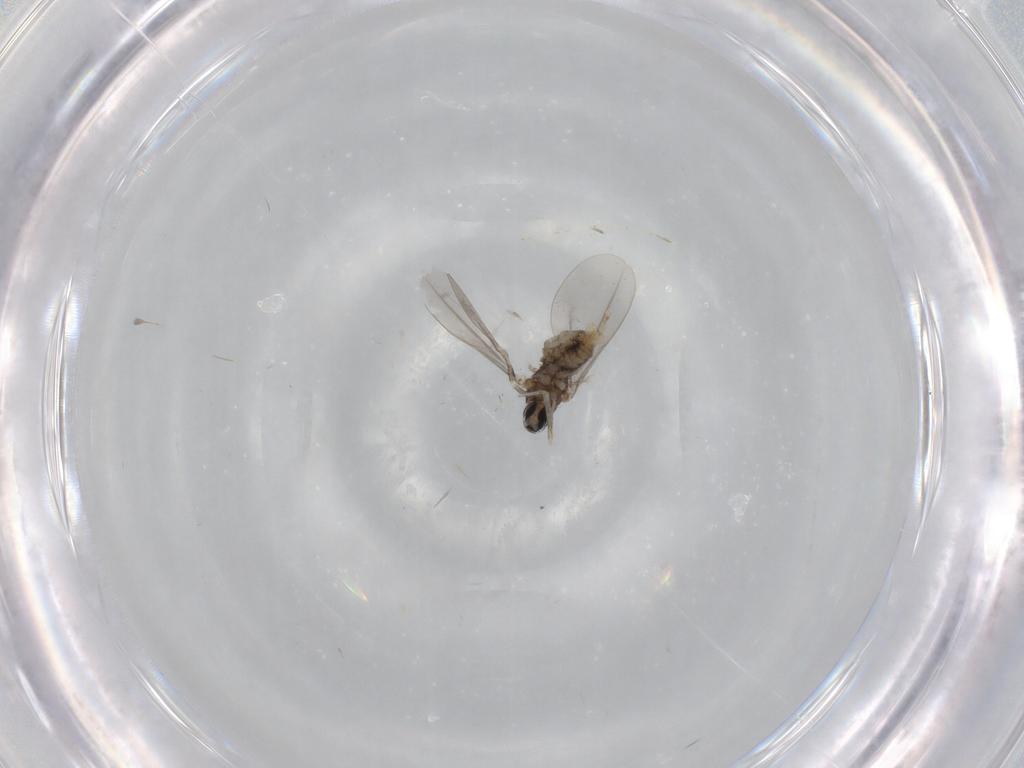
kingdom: Animalia
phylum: Arthropoda
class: Insecta
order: Diptera
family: Cecidomyiidae
